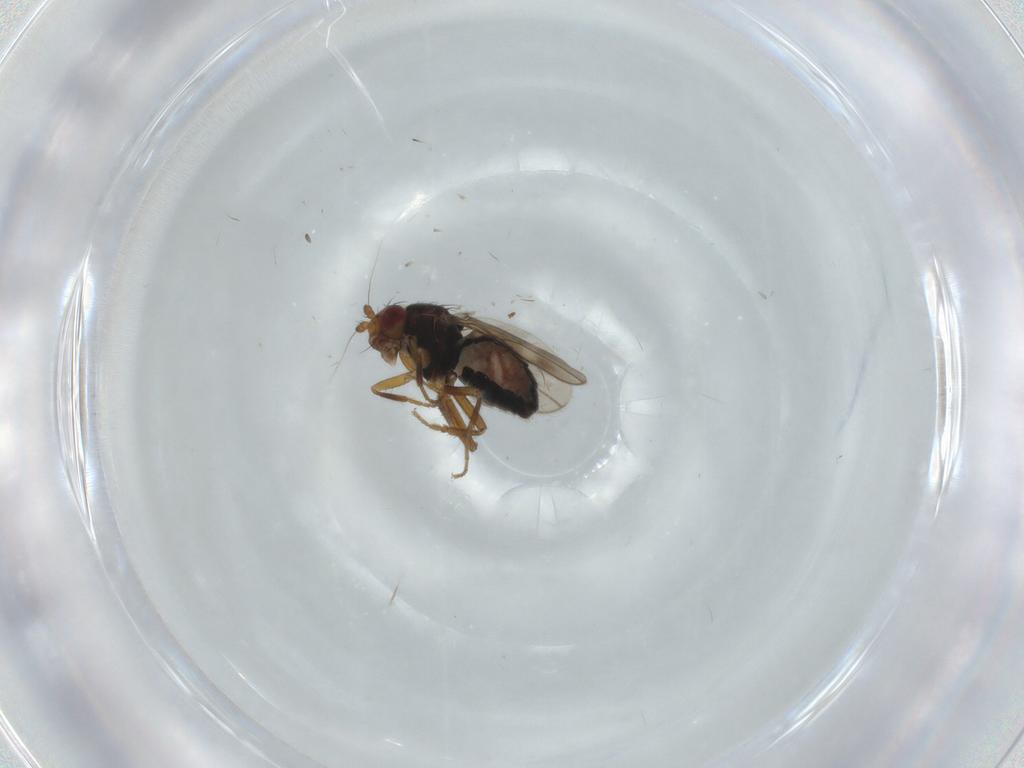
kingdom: Animalia
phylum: Arthropoda
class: Insecta
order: Diptera
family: Sphaeroceridae
